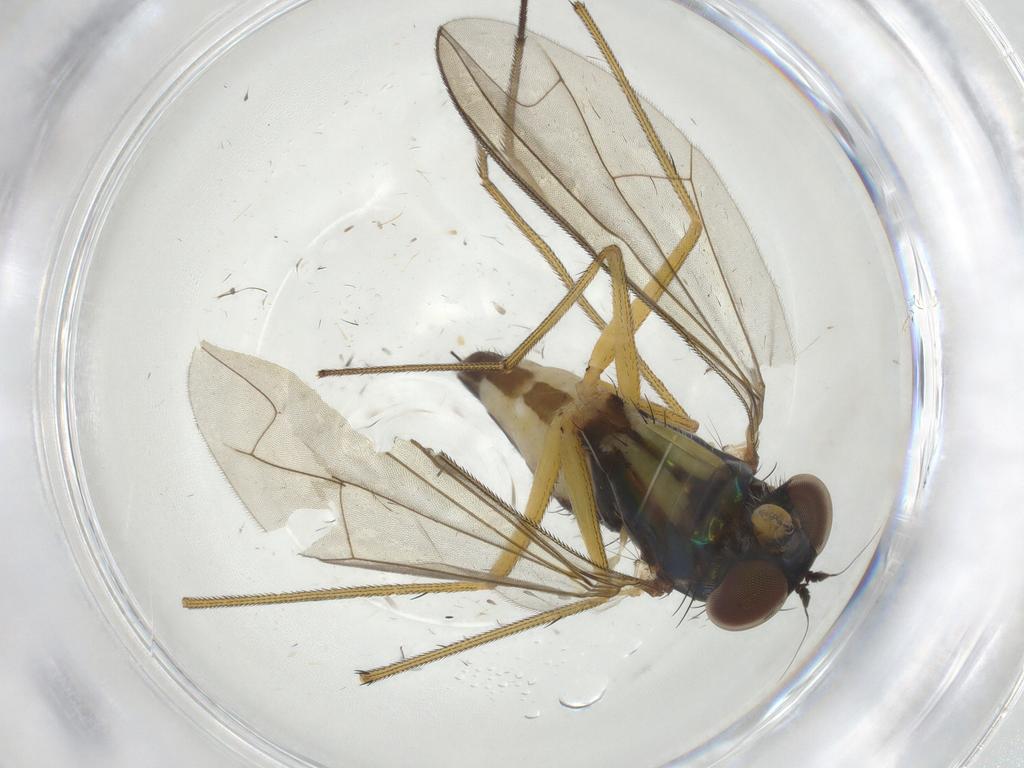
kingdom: Animalia
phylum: Arthropoda
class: Insecta
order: Diptera
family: Dolichopodidae
